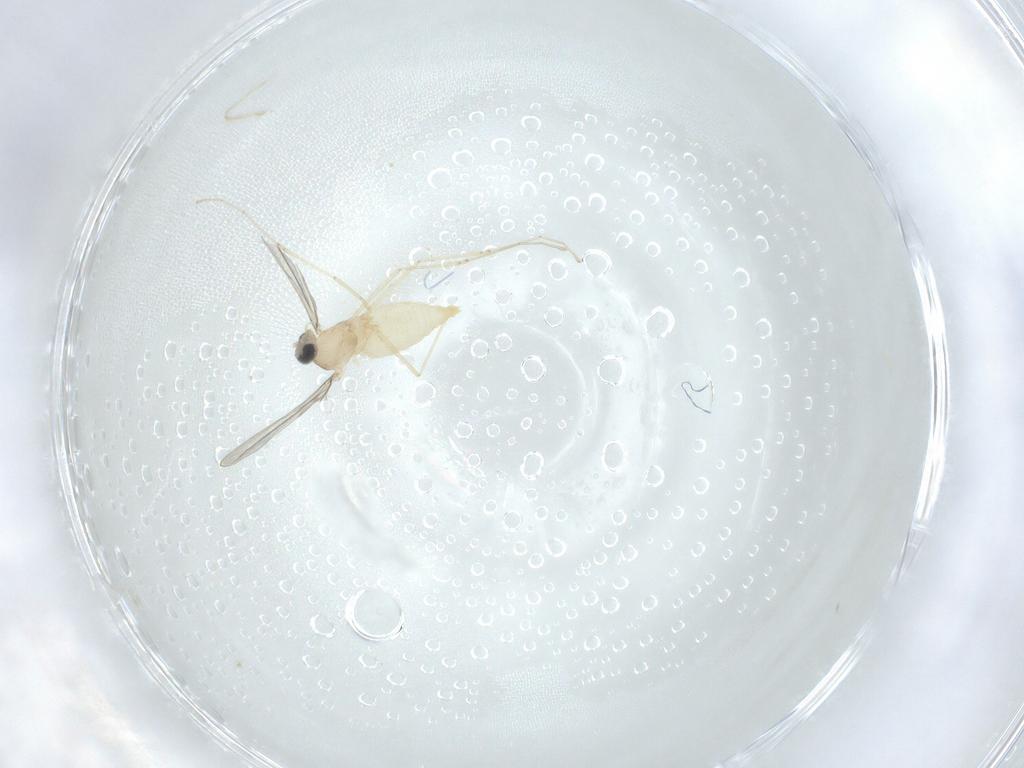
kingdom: Animalia
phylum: Arthropoda
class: Insecta
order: Diptera
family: Cecidomyiidae
